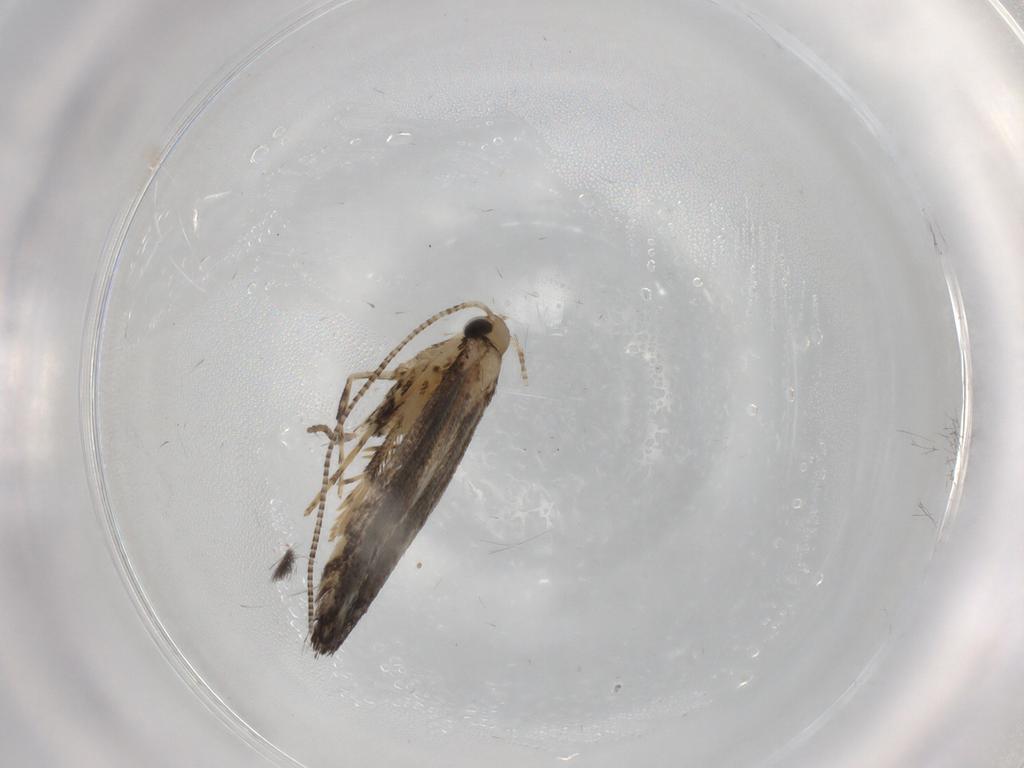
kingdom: Animalia
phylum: Arthropoda
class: Insecta
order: Lepidoptera
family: Gracillariidae
